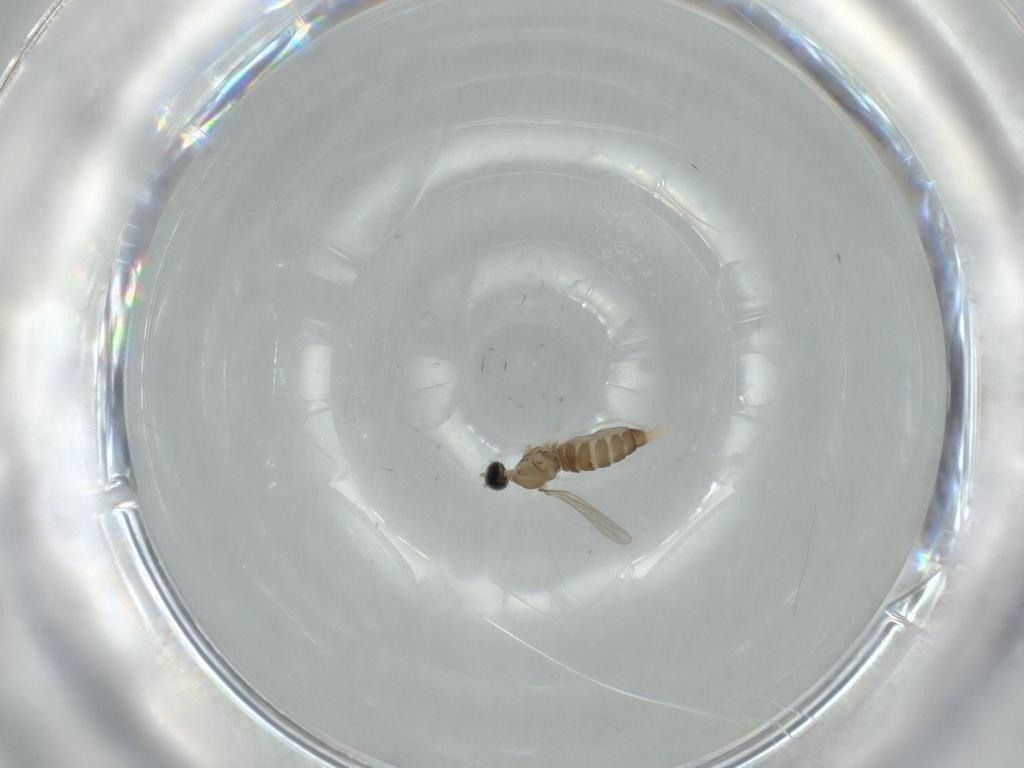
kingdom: Animalia
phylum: Arthropoda
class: Insecta
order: Diptera
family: Cecidomyiidae
